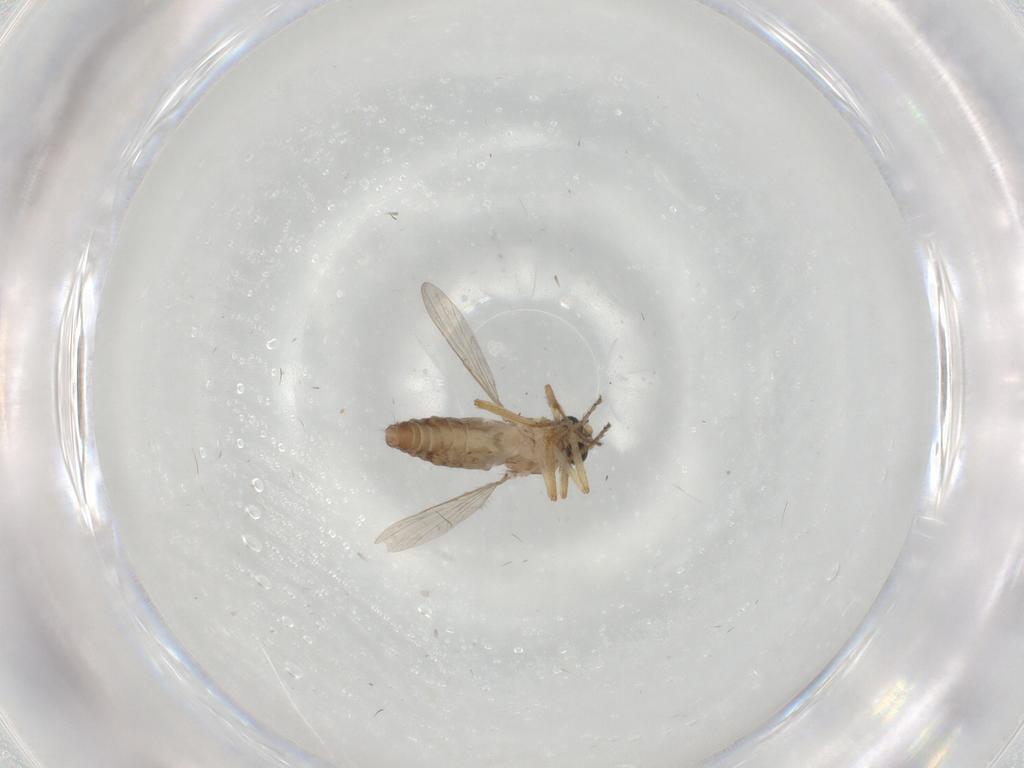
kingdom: Animalia
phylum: Arthropoda
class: Insecta
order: Diptera
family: Ceratopogonidae
